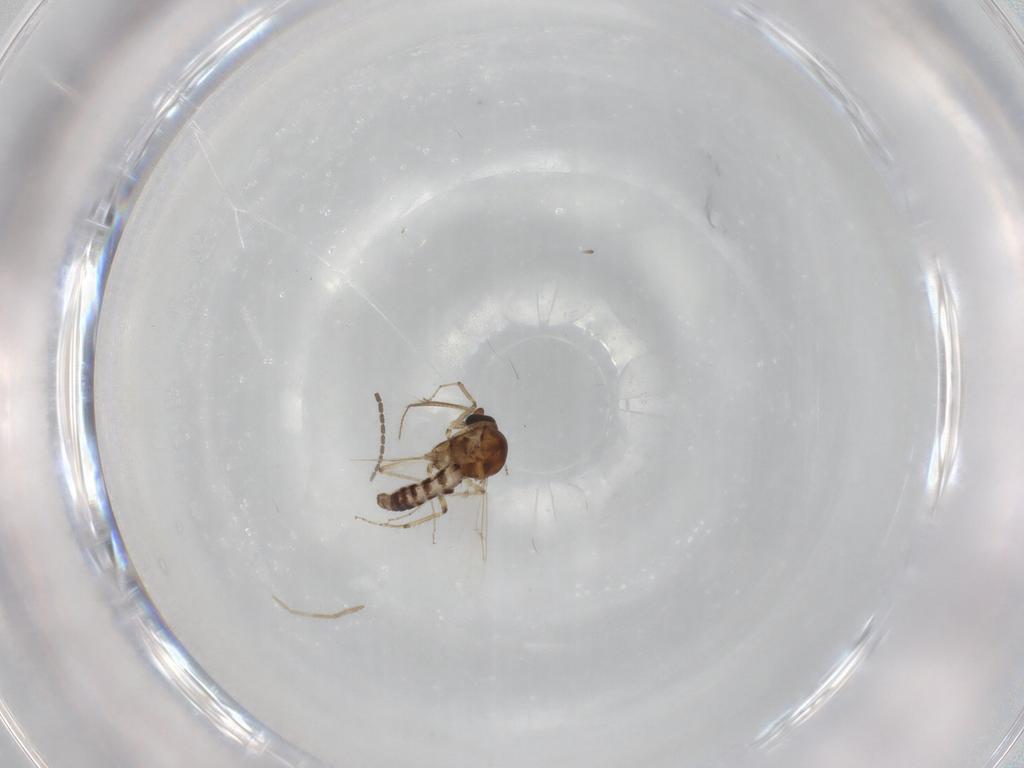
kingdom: Animalia
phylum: Arthropoda
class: Insecta
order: Diptera
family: Ceratopogonidae
